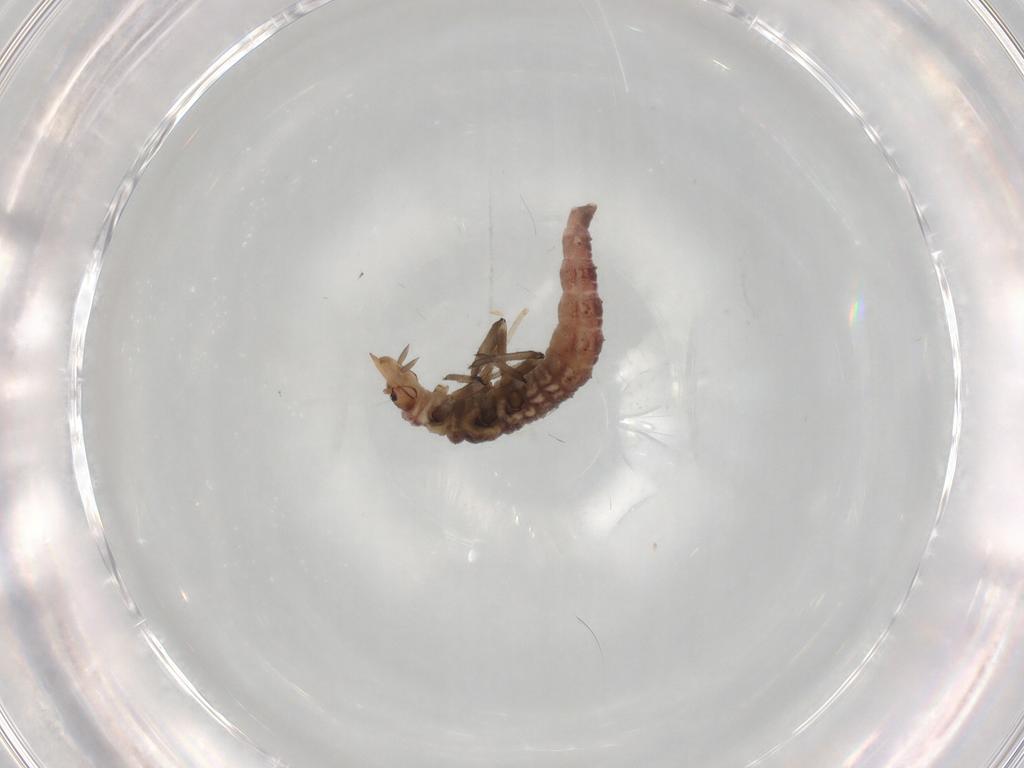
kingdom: Animalia
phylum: Arthropoda
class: Insecta
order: Neuroptera
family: Hemerobiidae
